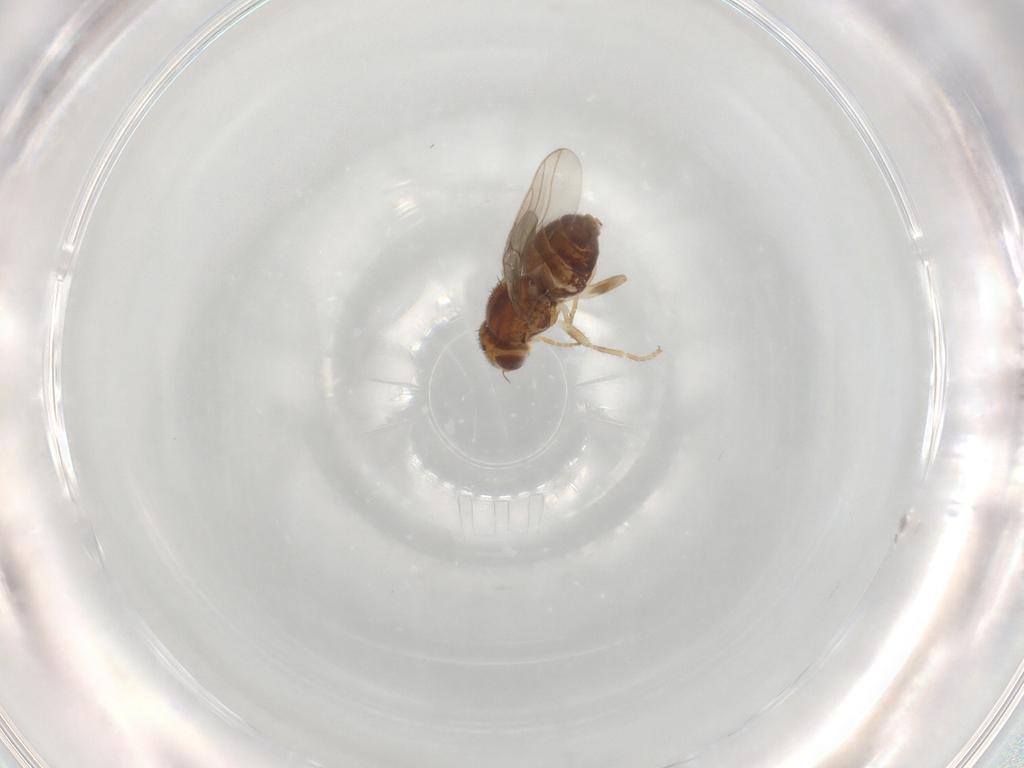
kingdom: Animalia
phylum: Arthropoda
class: Insecta
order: Diptera
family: Chloropidae
